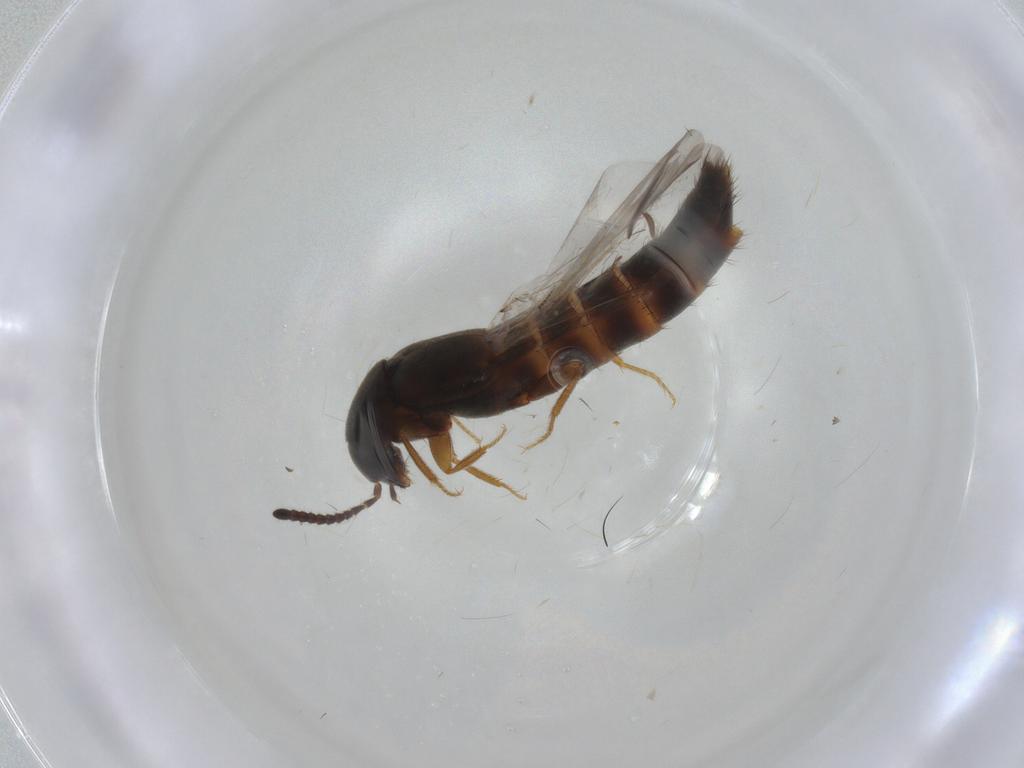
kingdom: Animalia
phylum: Arthropoda
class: Insecta
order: Coleoptera
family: Staphylinidae
